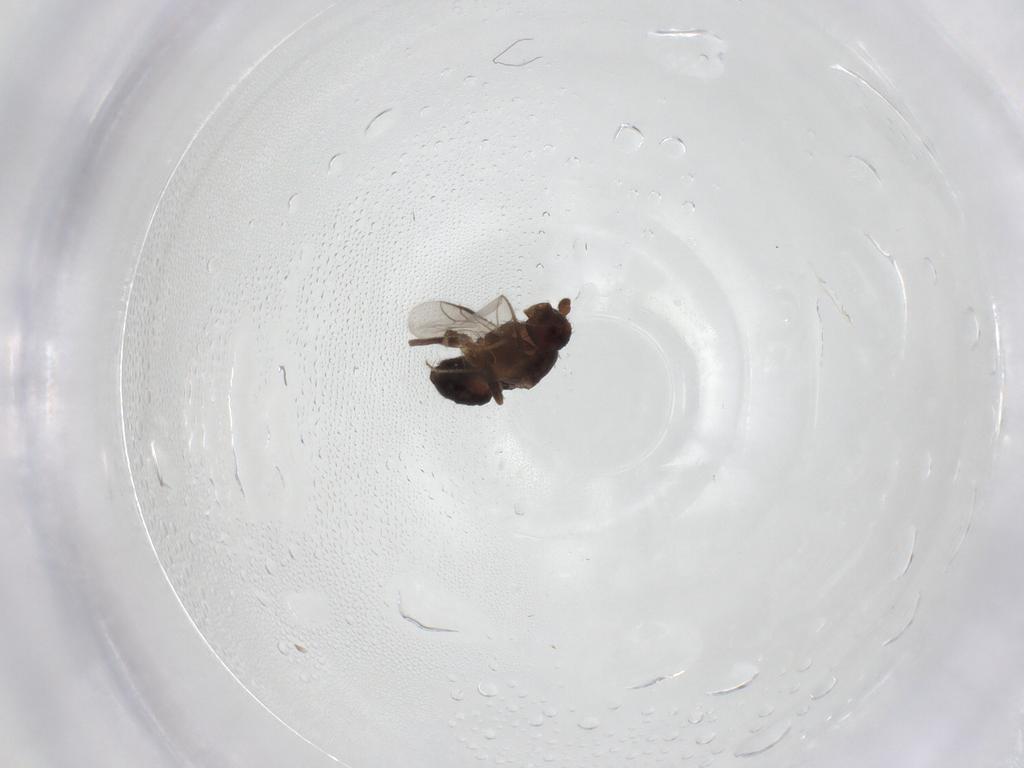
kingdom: Animalia
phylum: Arthropoda
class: Insecta
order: Diptera
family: Sphaeroceridae
